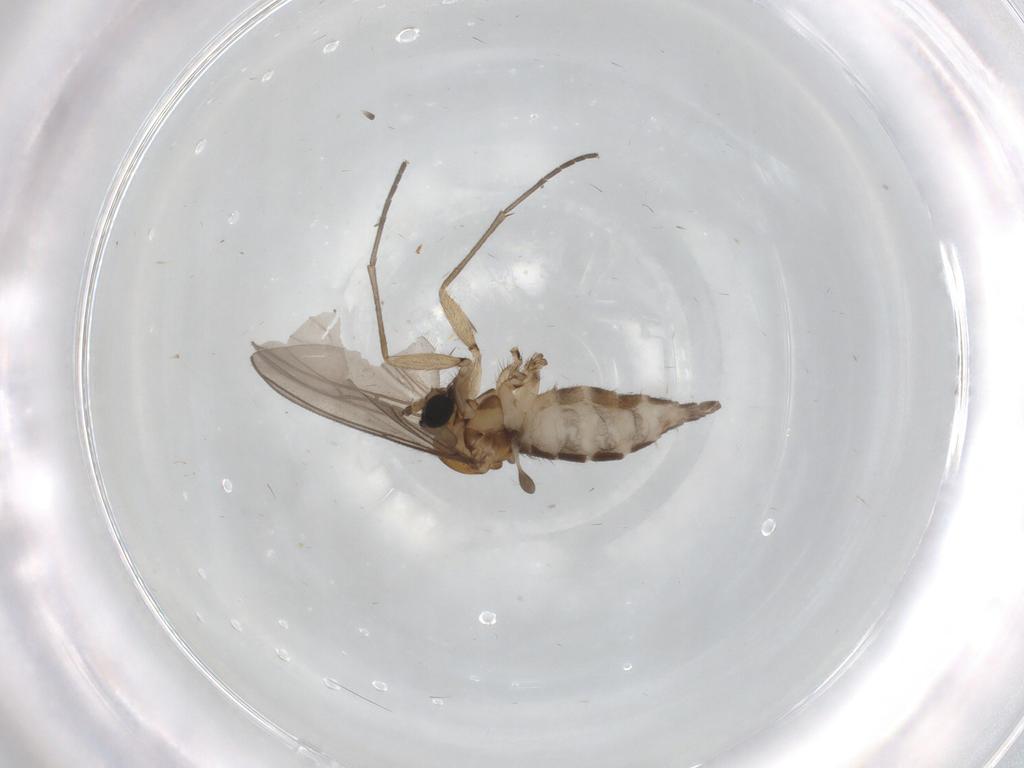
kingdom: Animalia
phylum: Arthropoda
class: Insecta
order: Diptera
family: Sciaridae
